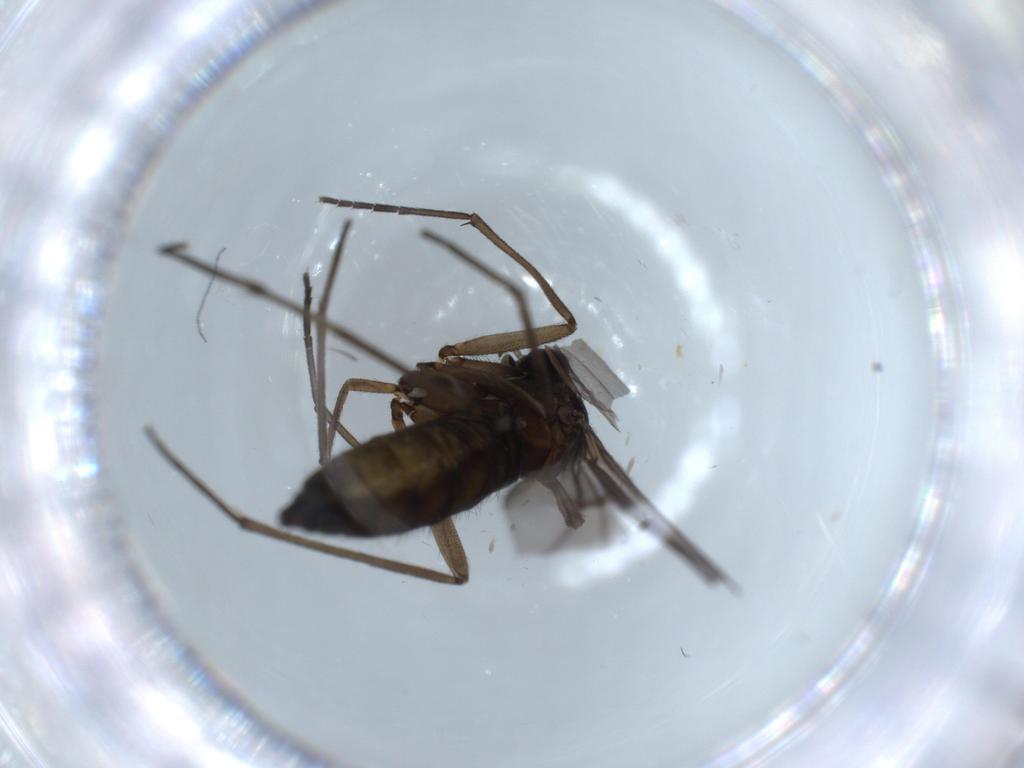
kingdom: Animalia
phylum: Arthropoda
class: Insecta
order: Diptera
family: Sciaridae
